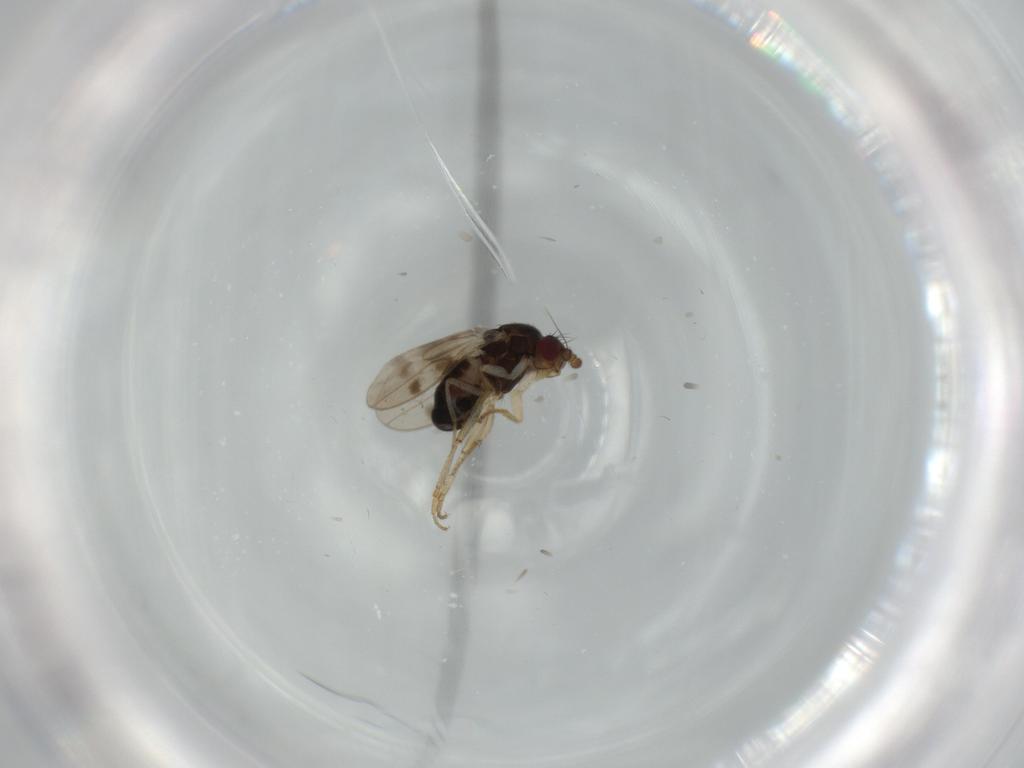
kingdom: Animalia
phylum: Arthropoda
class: Insecta
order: Diptera
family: Sphaeroceridae
